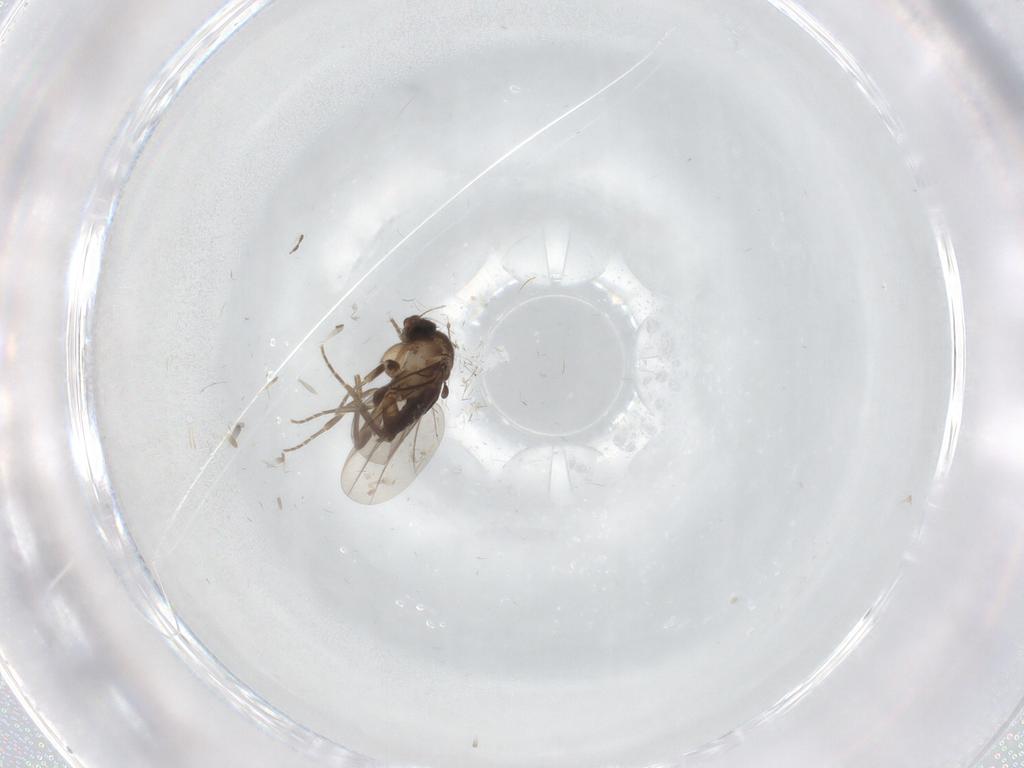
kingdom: Animalia
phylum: Arthropoda
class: Insecta
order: Diptera
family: Cecidomyiidae
